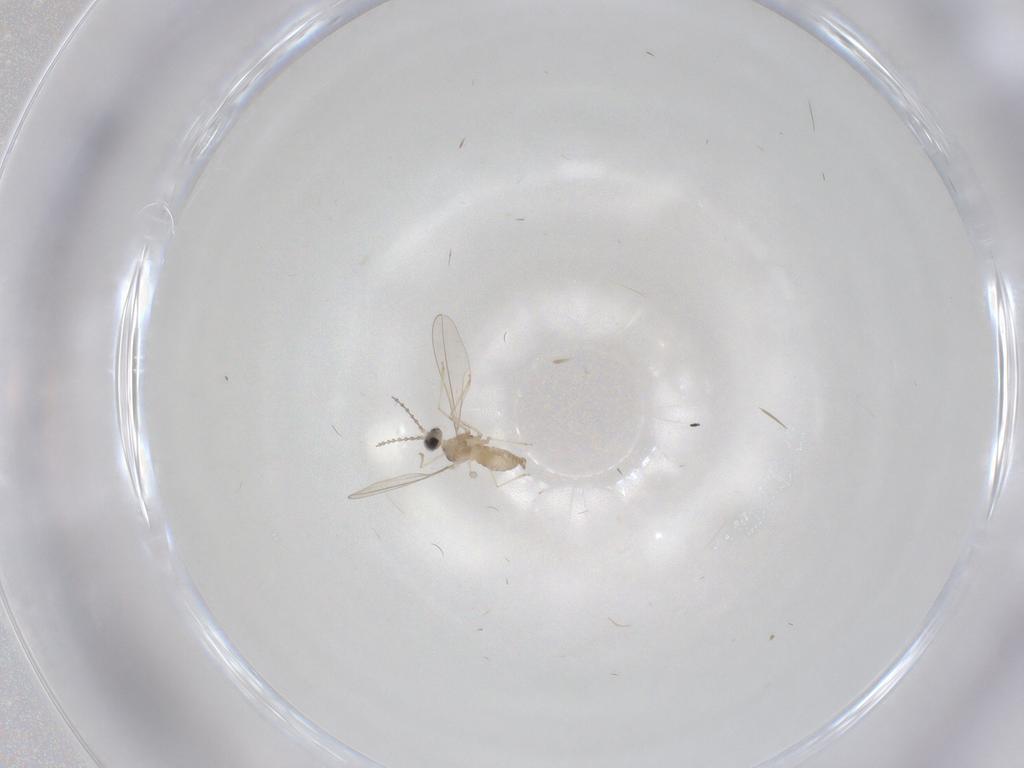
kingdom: Animalia
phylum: Arthropoda
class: Insecta
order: Diptera
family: Cecidomyiidae
